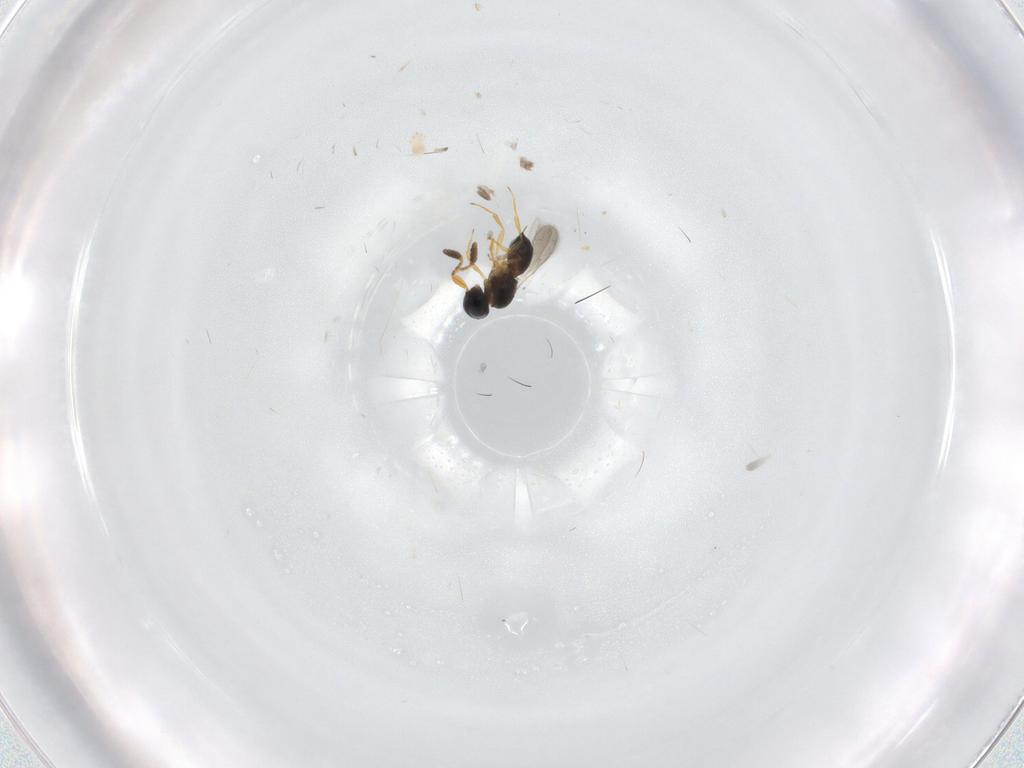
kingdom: Animalia
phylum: Arthropoda
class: Insecta
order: Hymenoptera
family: Scelionidae
